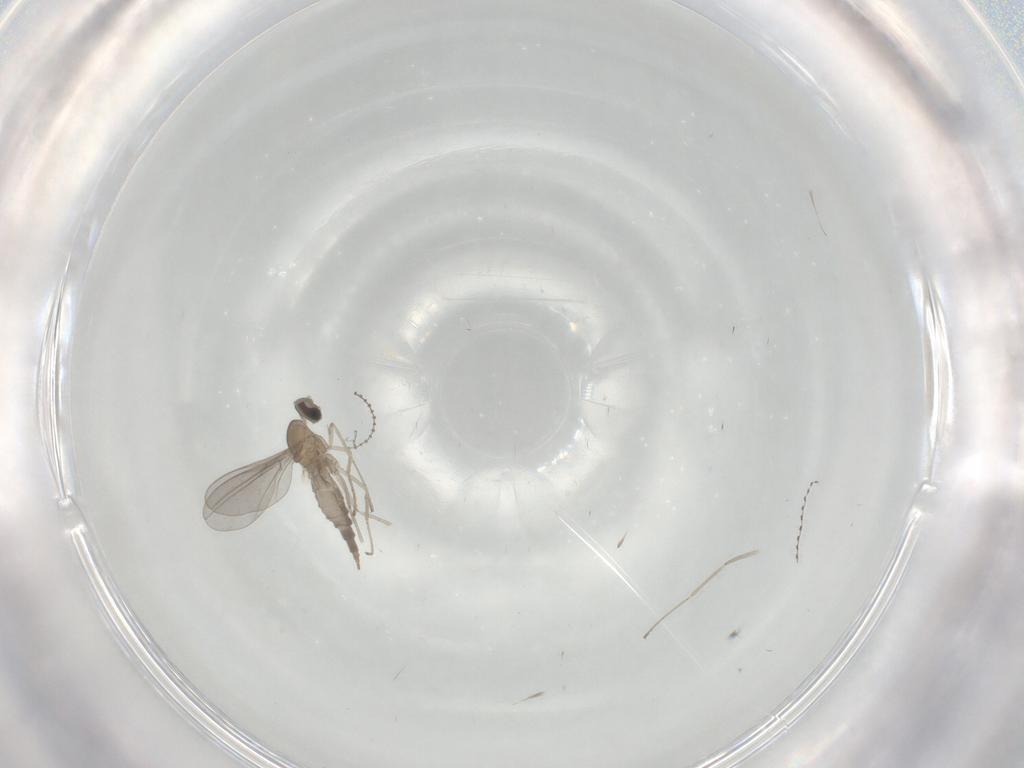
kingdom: Animalia
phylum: Arthropoda
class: Insecta
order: Diptera
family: Cecidomyiidae
